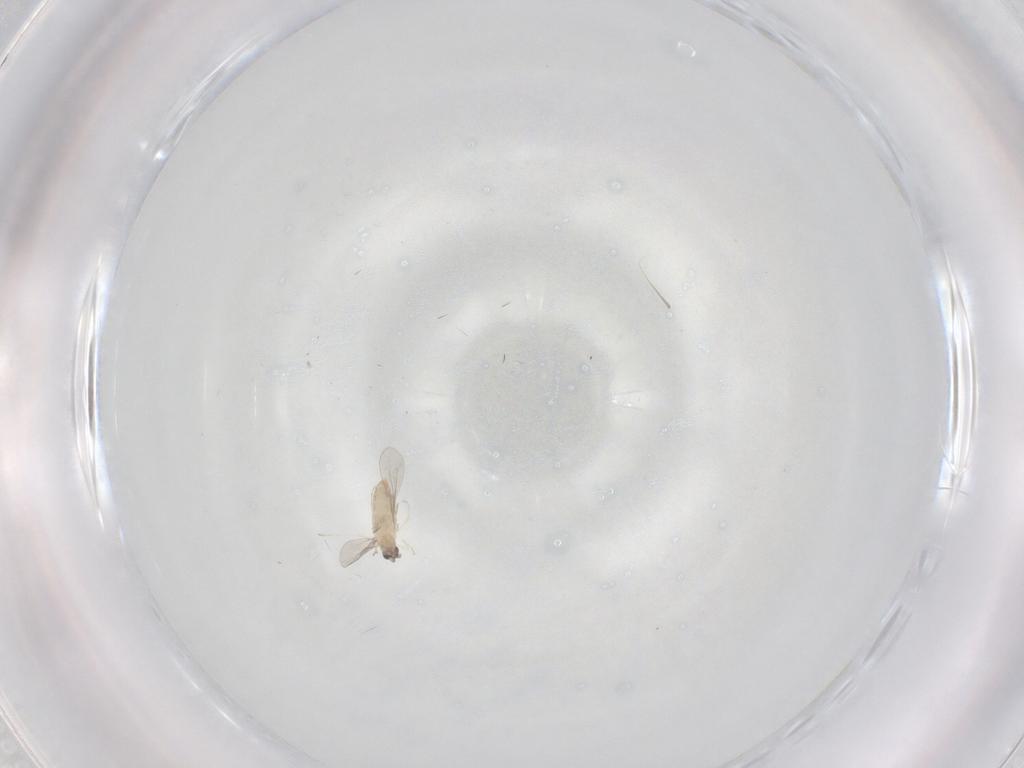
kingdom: Animalia
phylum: Arthropoda
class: Insecta
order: Diptera
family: Cecidomyiidae
